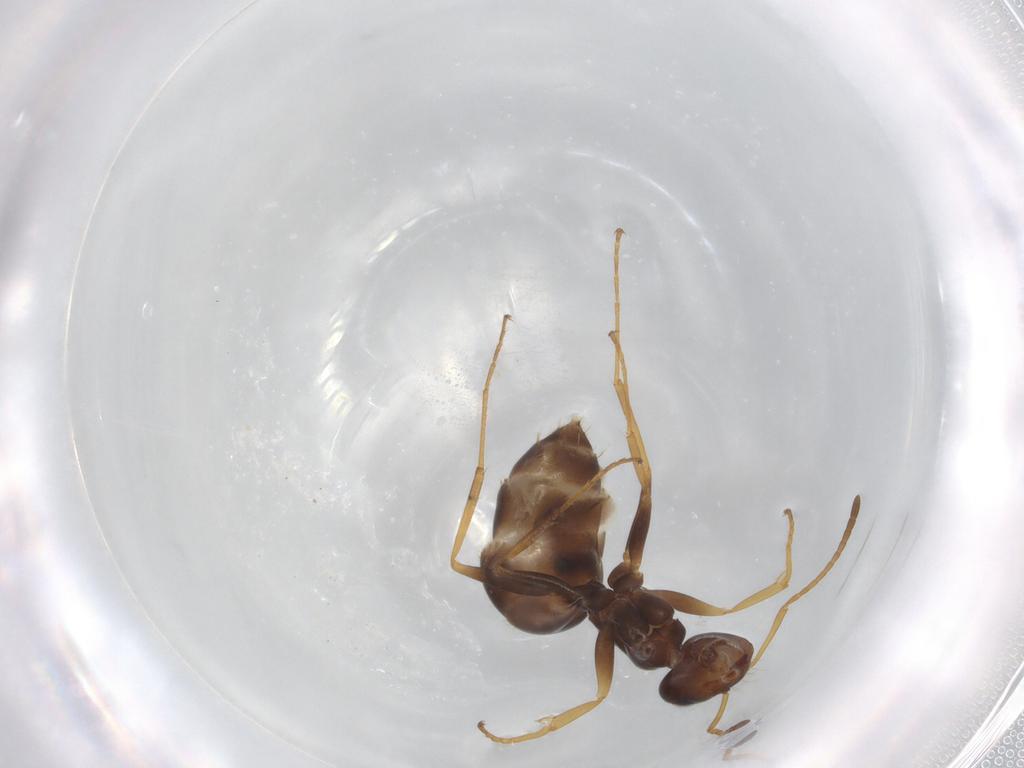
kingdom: Animalia
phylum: Arthropoda
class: Insecta
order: Hymenoptera
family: Formicidae
